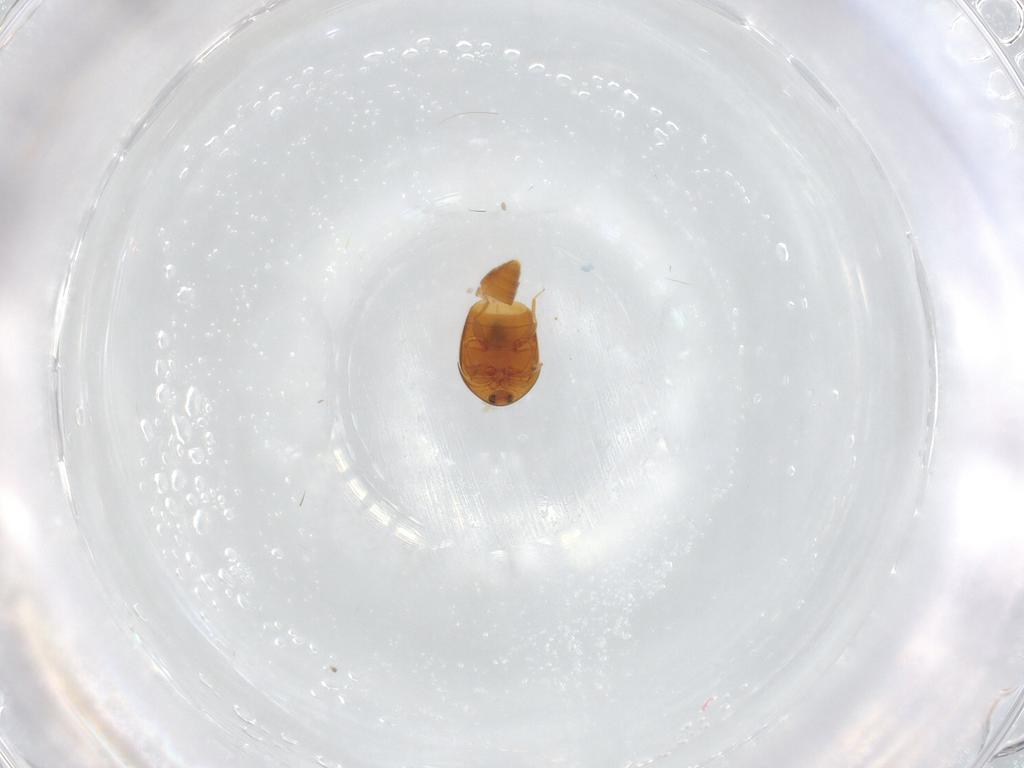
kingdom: Animalia
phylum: Arthropoda
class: Insecta
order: Coleoptera
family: Corylophidae
